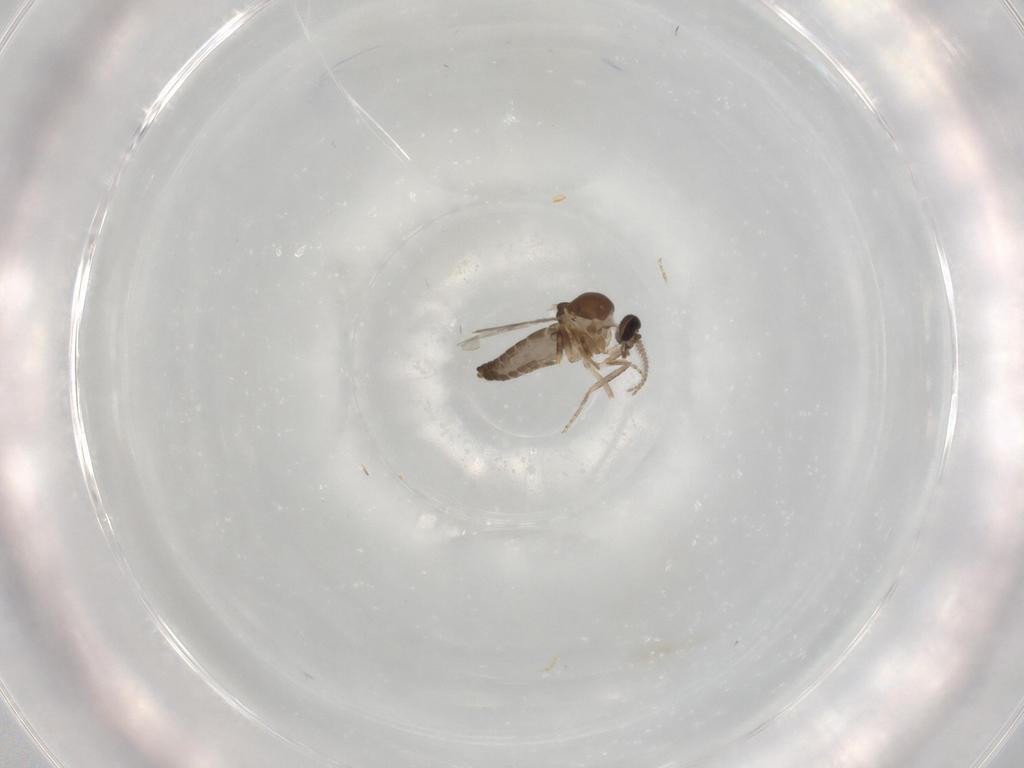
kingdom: Animalia
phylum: Arthropoda
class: Insecta
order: Diptera
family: Ceratopogonidae
